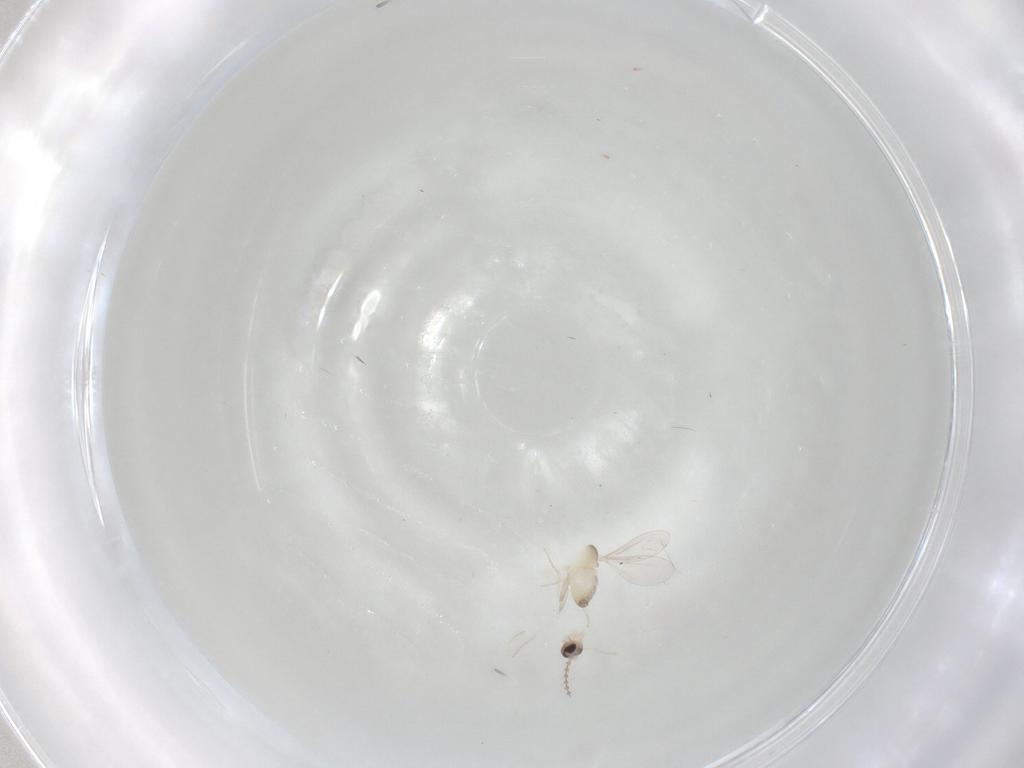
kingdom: Animalia
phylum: Arthropoda
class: Insecta
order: Diptera
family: Cecidomyiidae
